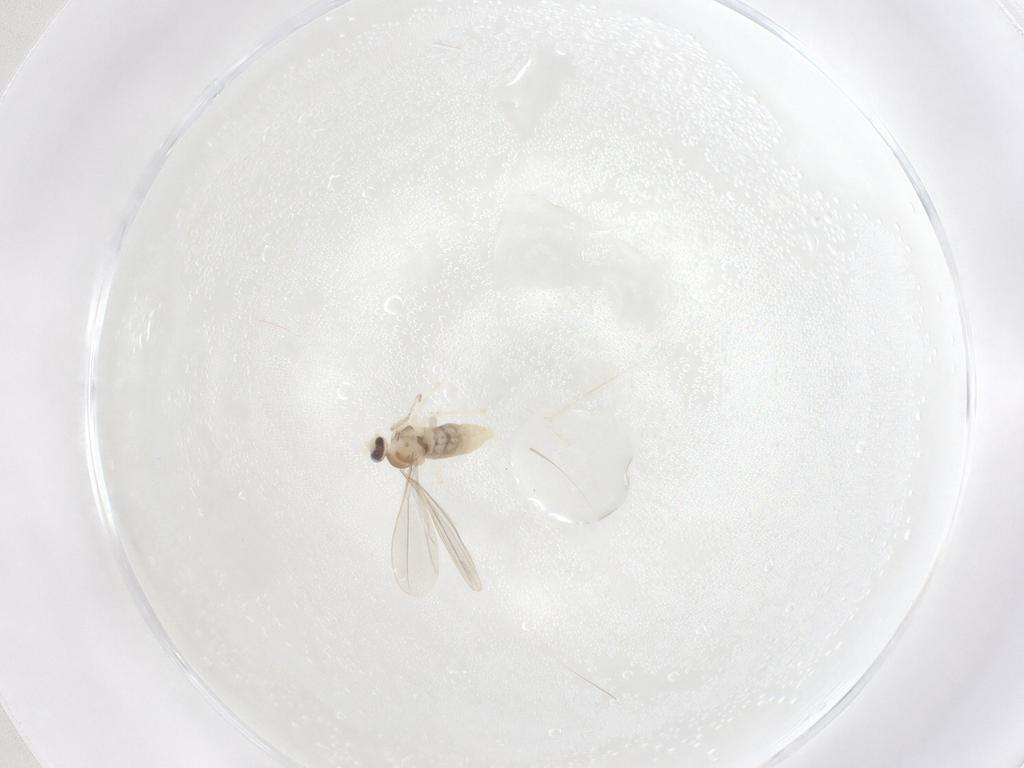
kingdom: Animalia
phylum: Arthropoda
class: Insecta
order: Diptera
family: Cecidomyiidae
